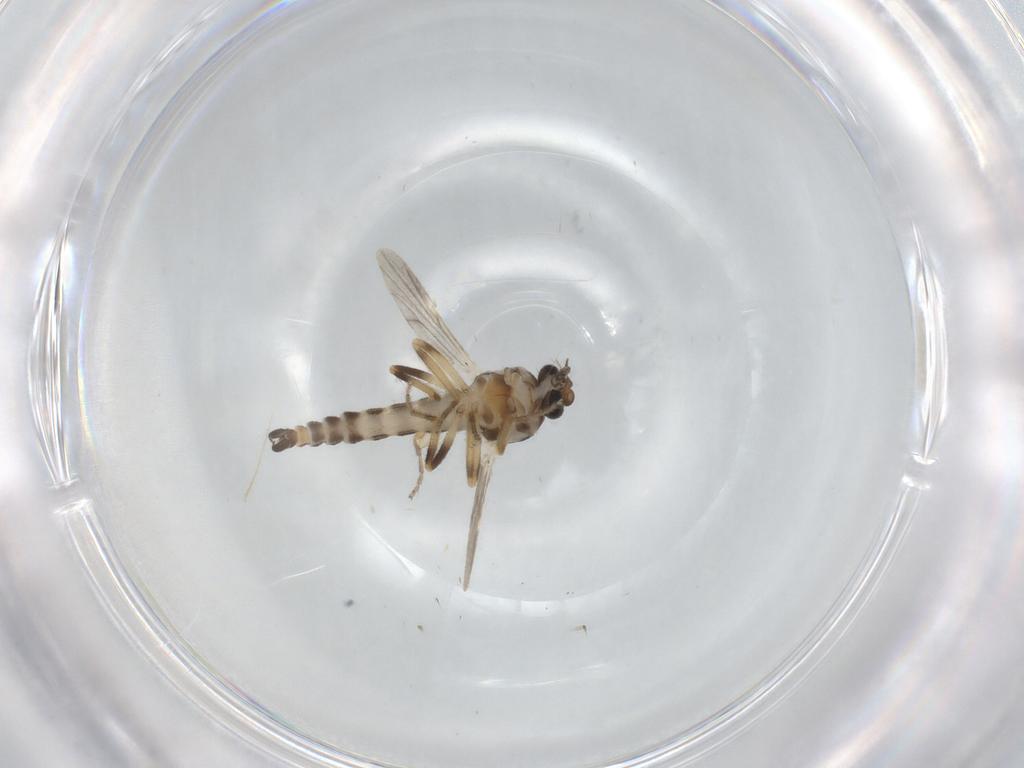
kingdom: Animalia
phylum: Arthropoda
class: Insecta
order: Diptera
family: Ceratopogonidae
